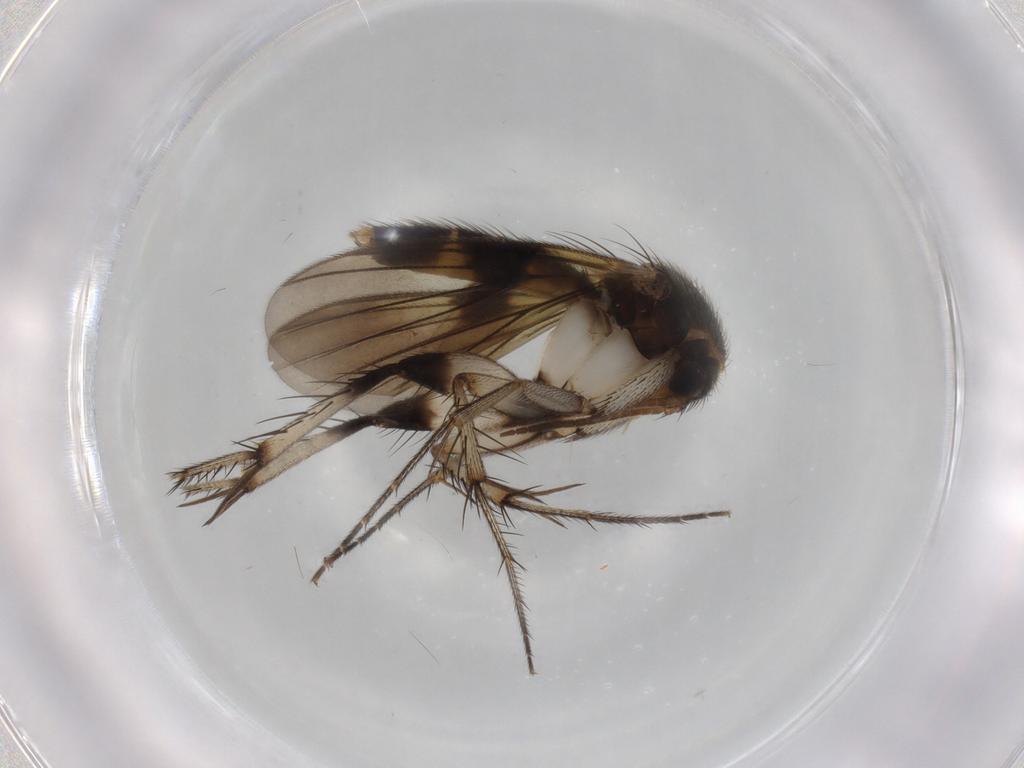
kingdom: Animalia
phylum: Arthropoda
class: Insecta
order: Diptera
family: Mycetophilidae
